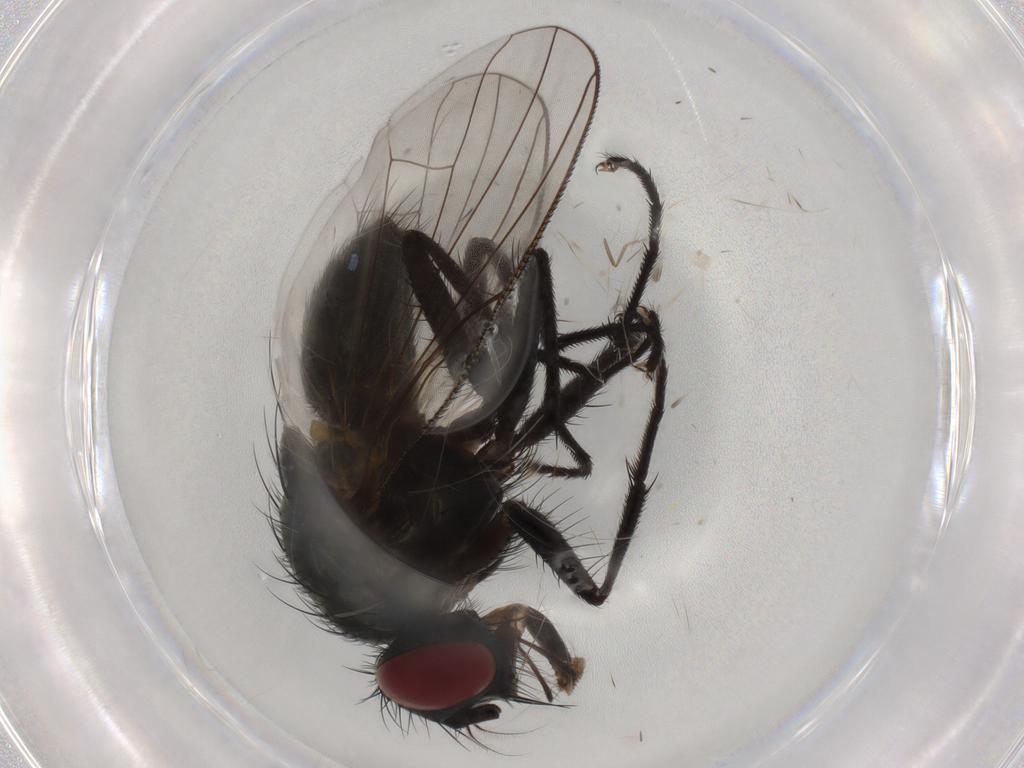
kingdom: Animalia
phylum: Arthropoda
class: Insecta
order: Diptera
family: Muscidae
